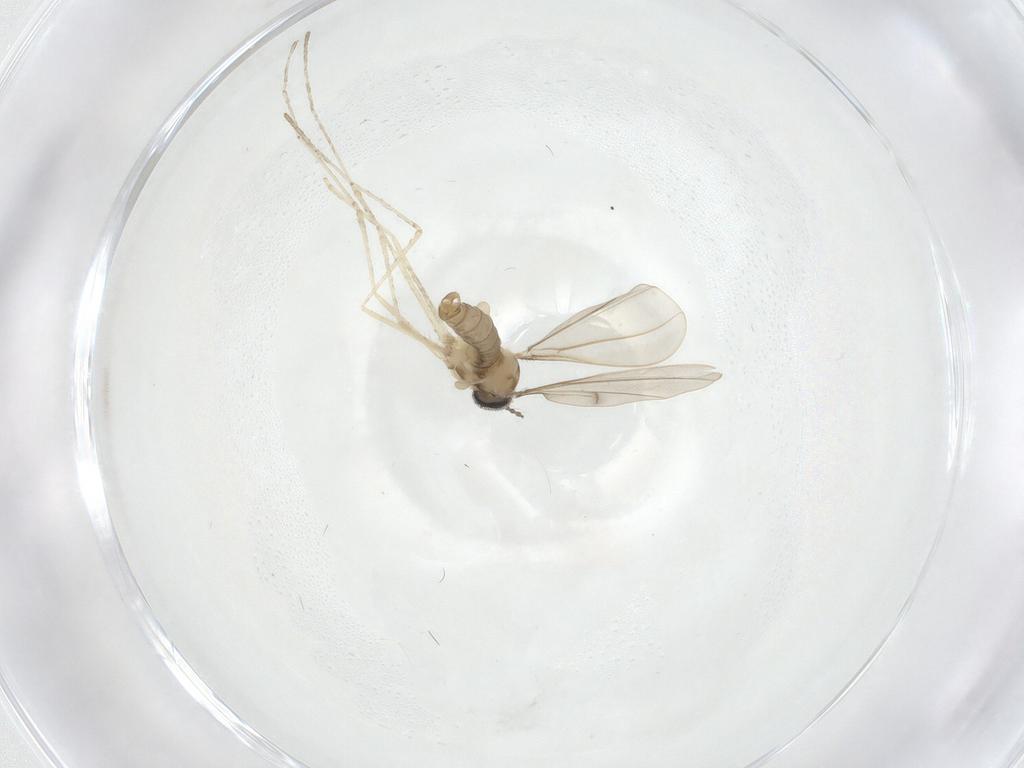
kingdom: Animalia
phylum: Arthropoda
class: Insecta
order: Diptera
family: Cecidomyiidae
